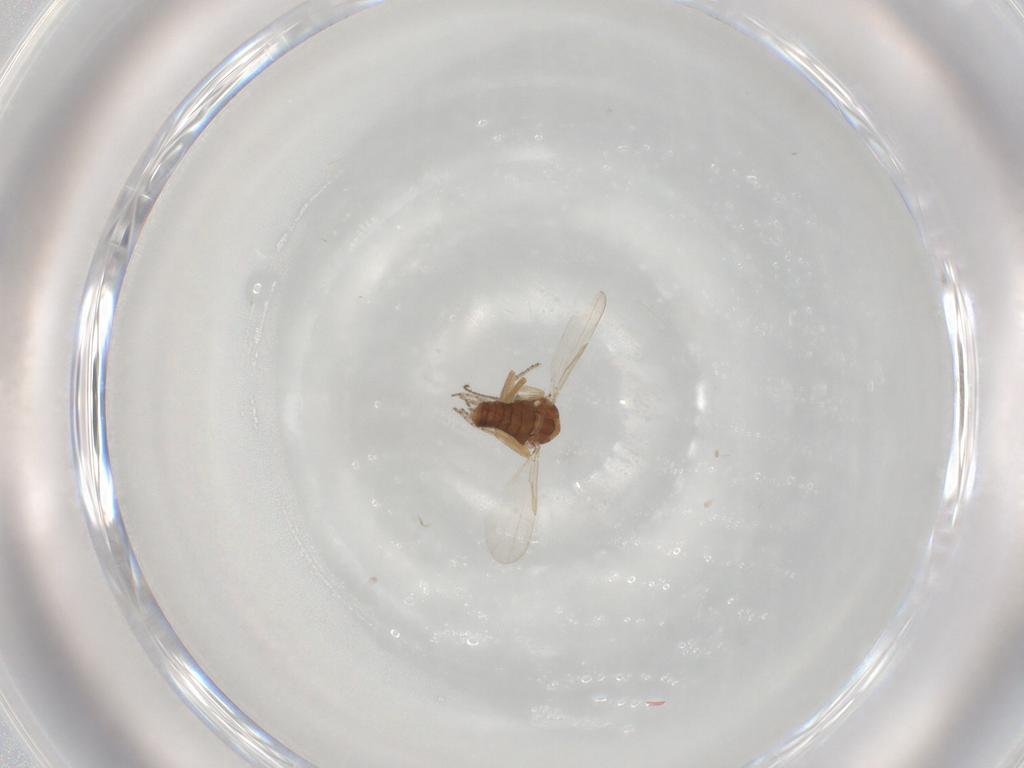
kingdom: Animalia
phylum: Arthropoda
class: Insecta
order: Diptera
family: Ceratopogonidae
